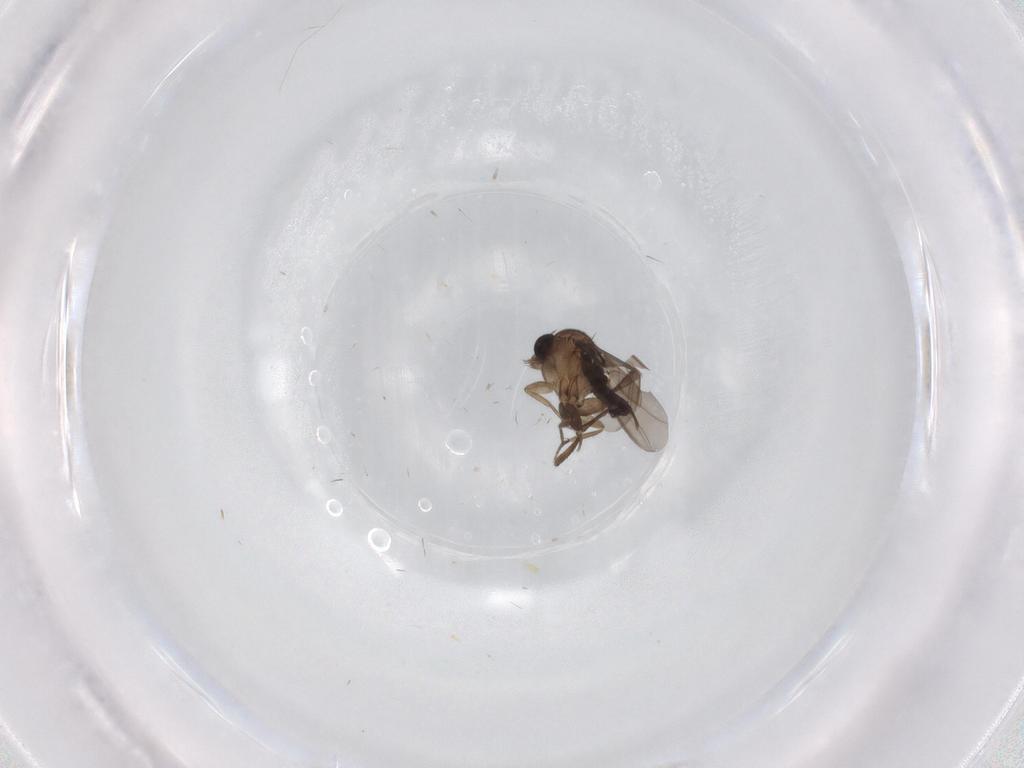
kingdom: Animalia
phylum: Arthropoda
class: Insecta
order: Diptera
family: Phoridae
